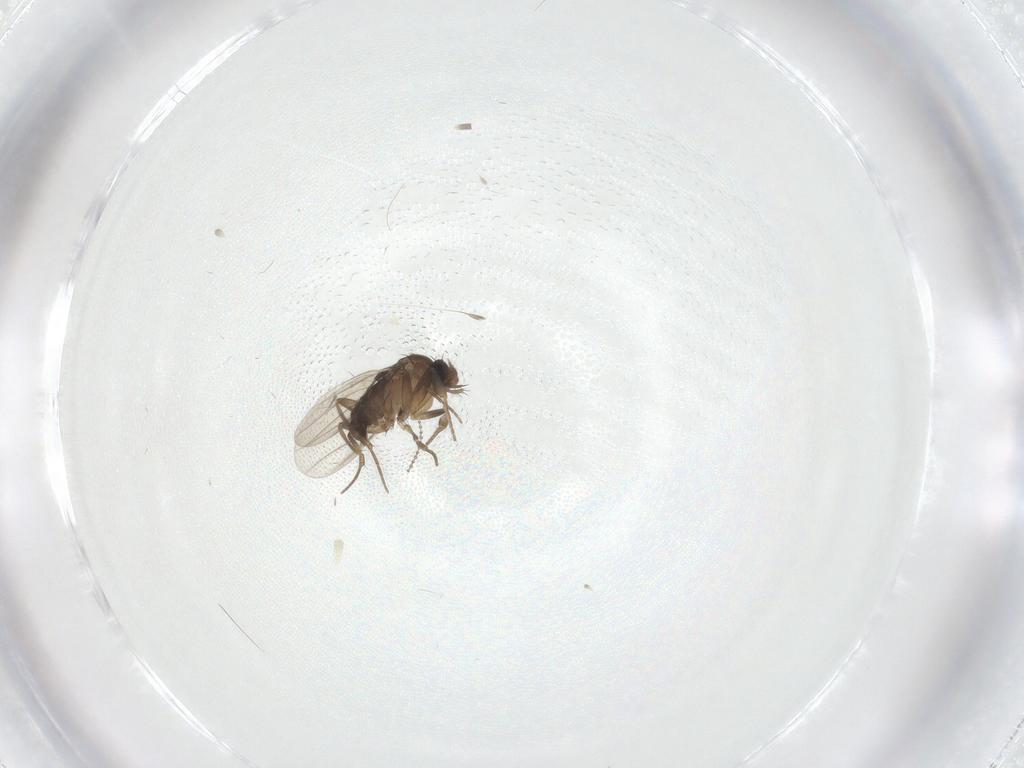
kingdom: Animalia
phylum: Arthropoda
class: Insecta
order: Diptera
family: Phoridae
